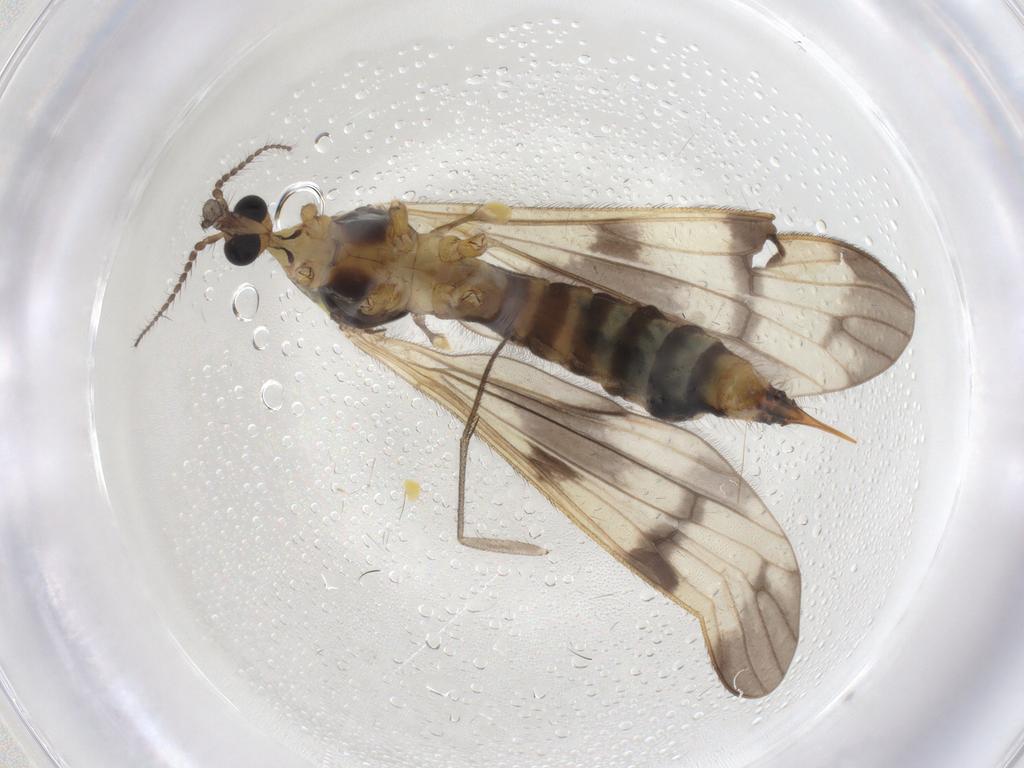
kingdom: Animalia
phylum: Arthropoda
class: Insecta
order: Diptera
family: Limoniidae
